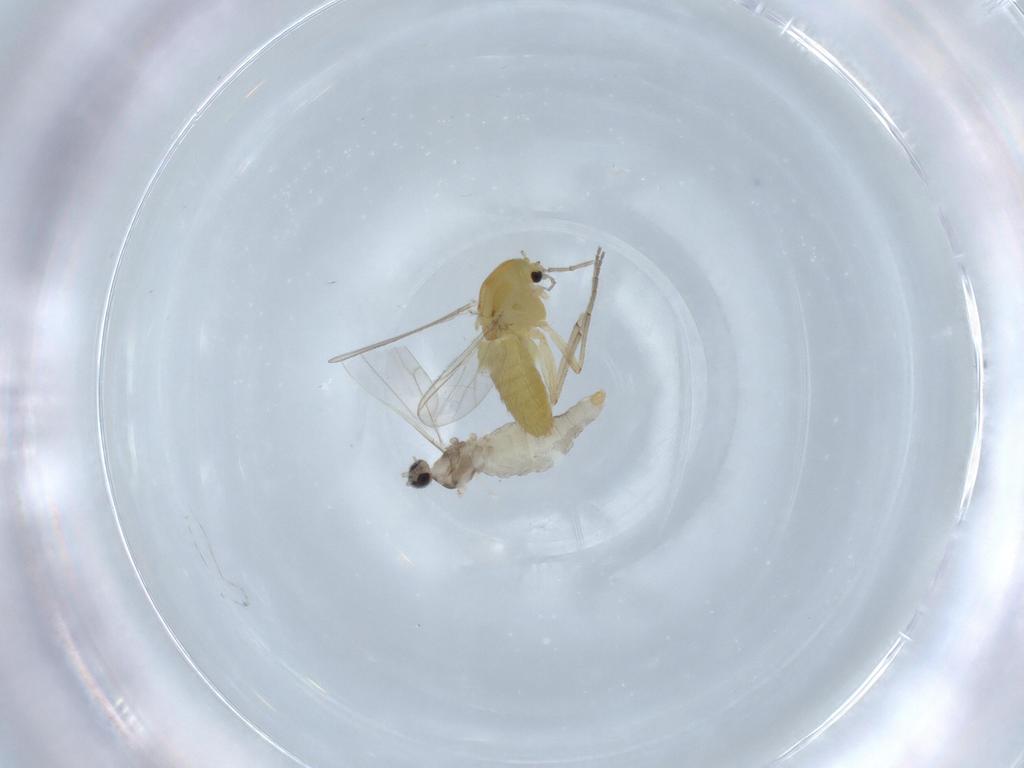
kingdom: Animalia
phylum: Arthropoda
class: Insecta
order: Diptera
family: Chironomidae
